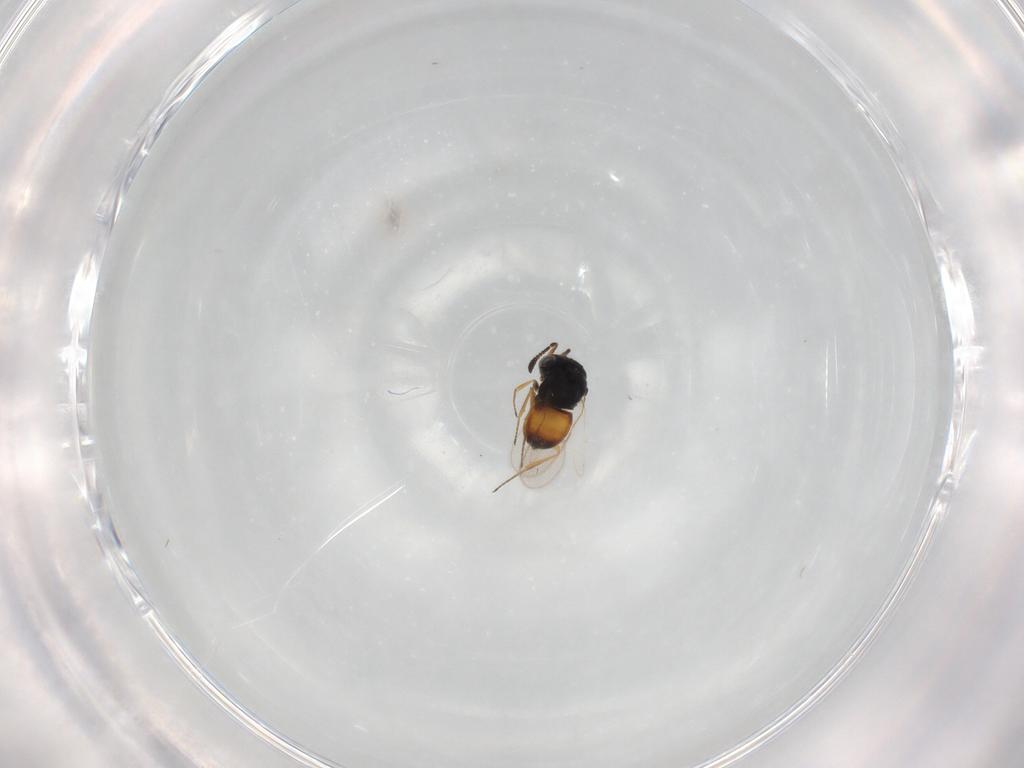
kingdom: Animalia
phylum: Arthropoda
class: Insecta
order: Hymenoptera
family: Scelionidae
